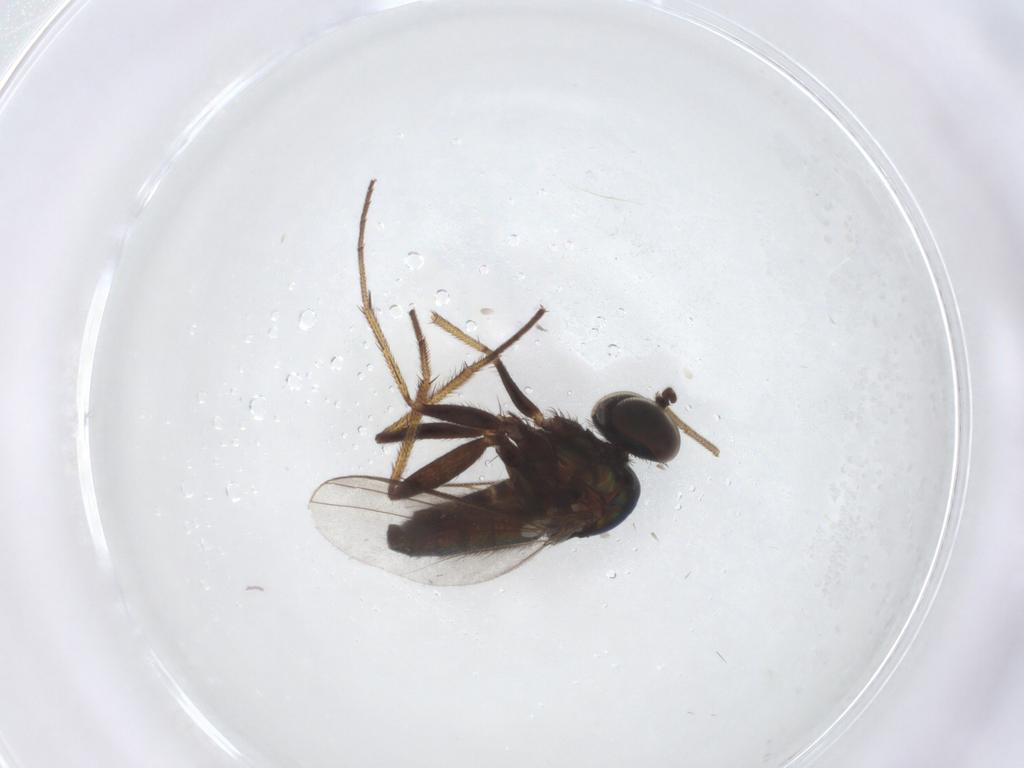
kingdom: Animalia
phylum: Arthropoda
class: Insecta
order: Diptera
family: Dolichopodidae
